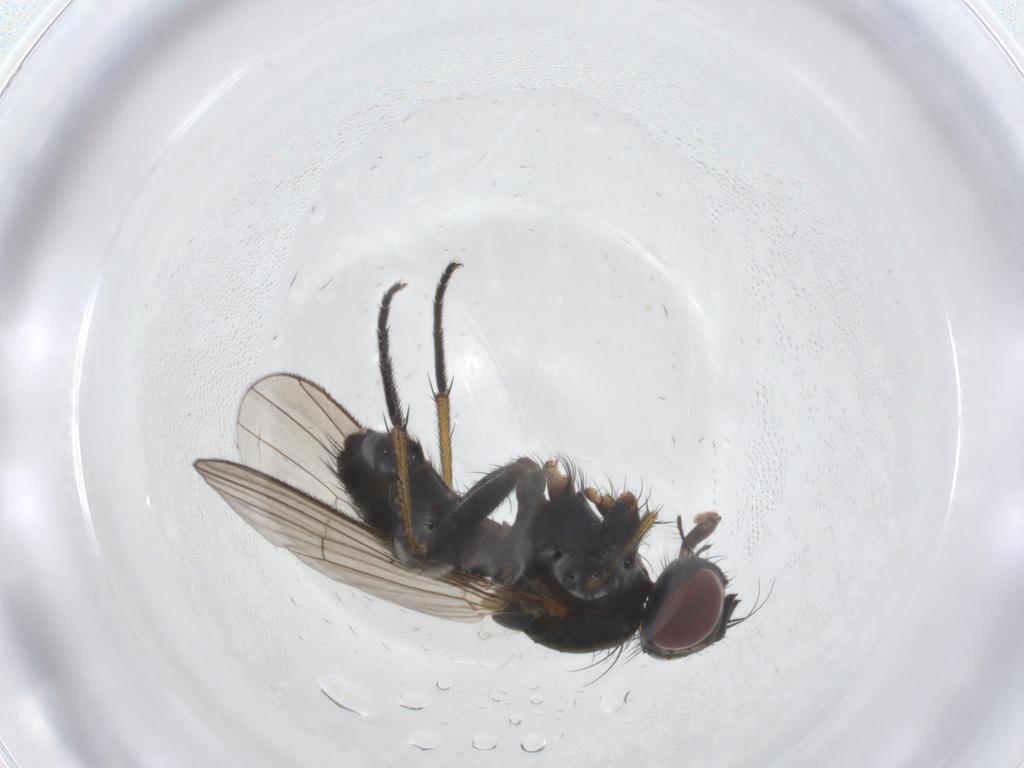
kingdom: Animalia
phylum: Arthropoda
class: Insecta
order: Diptera
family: Muscidae
